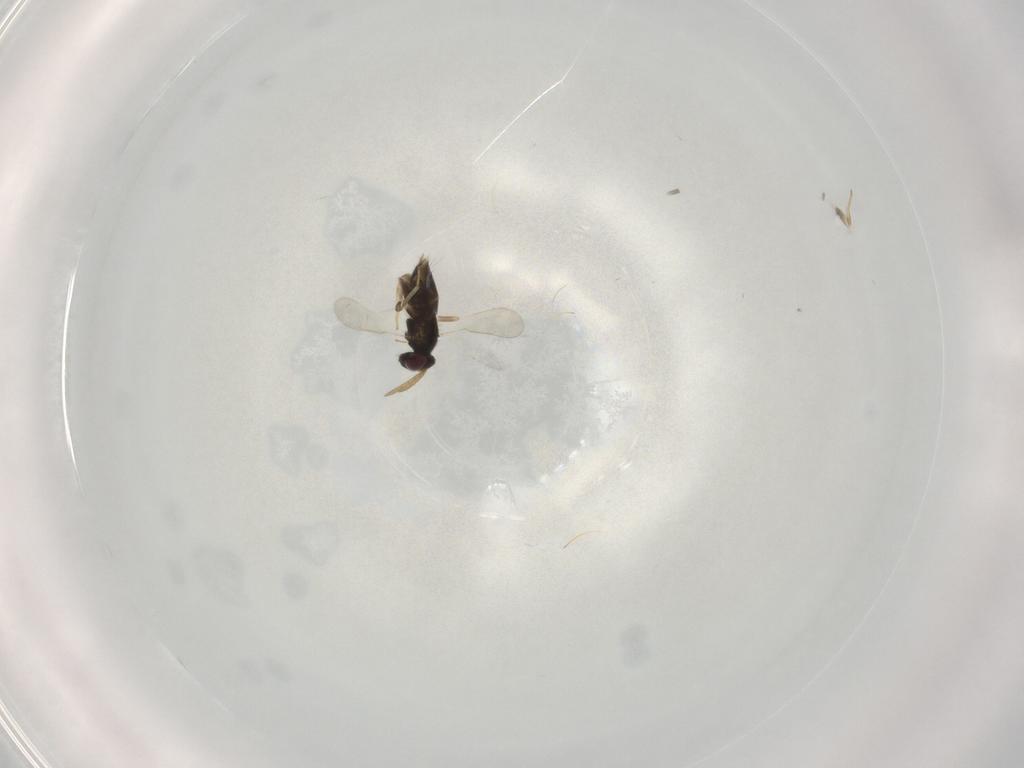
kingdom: Animalia
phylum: Arthropoda
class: Insecta
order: Hymenoptera
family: Aphelinidae
